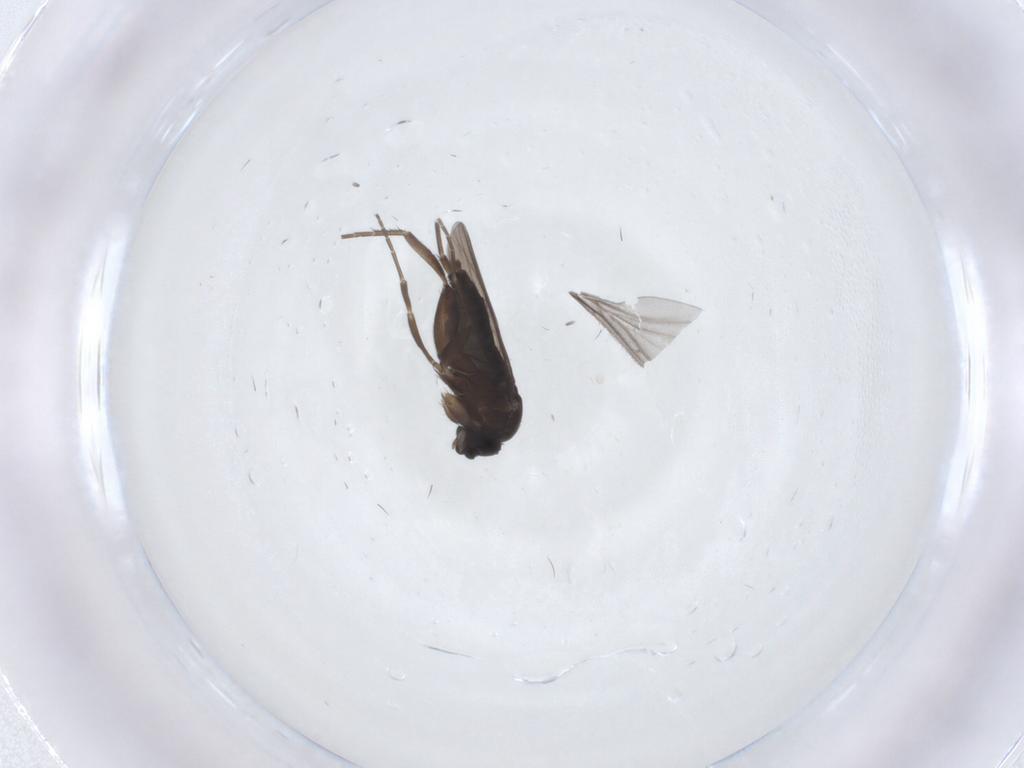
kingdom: Animalia
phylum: Arthropoda
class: Insecta
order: Diptera
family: Phoridae
